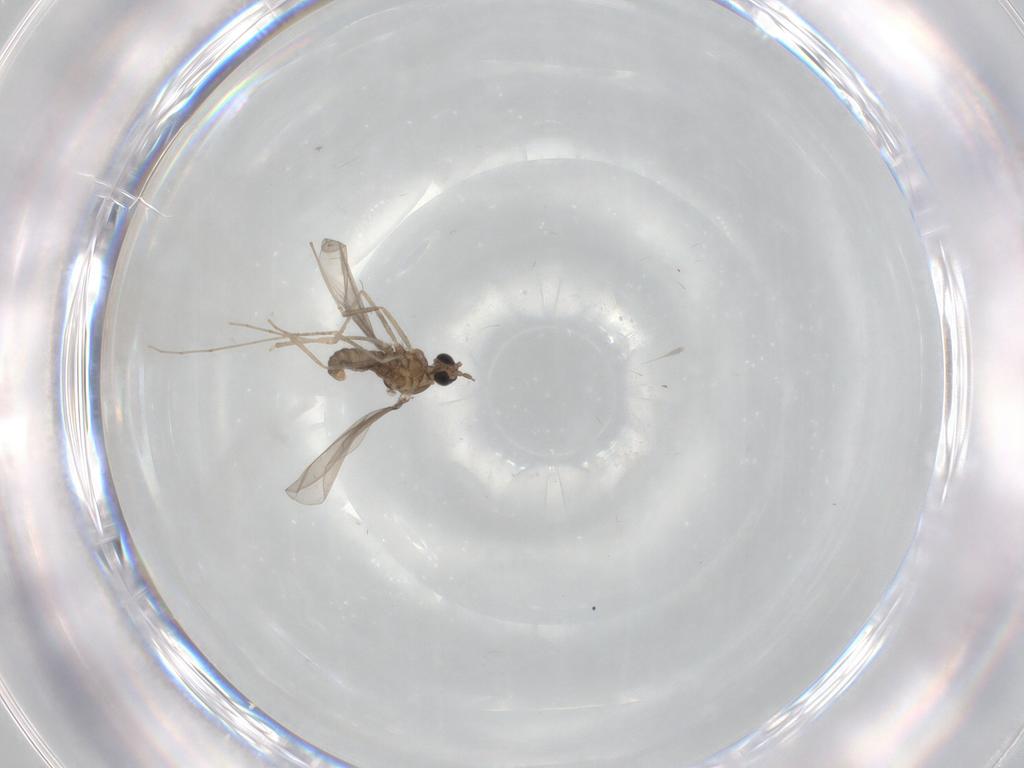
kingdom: Animalia
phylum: Arthropoda
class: Insecta
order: Diptera
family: Cecidomyiidae
